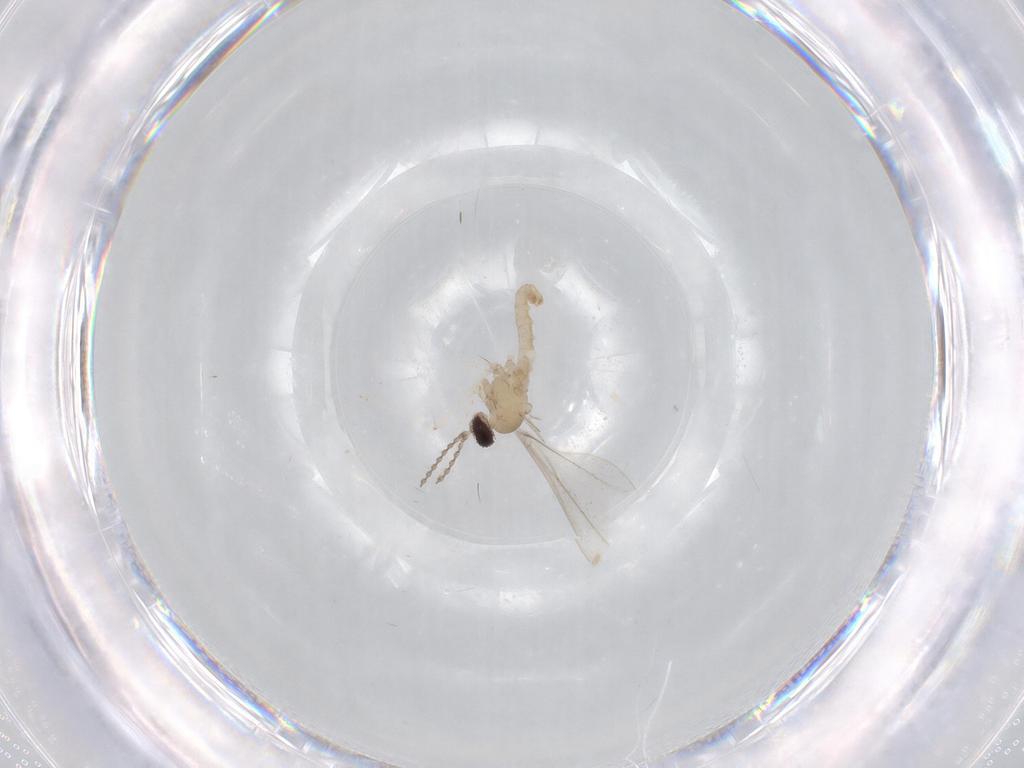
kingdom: Animalia
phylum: Arthropoda
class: Insecta
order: Diptera
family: Cecidomyiidae
